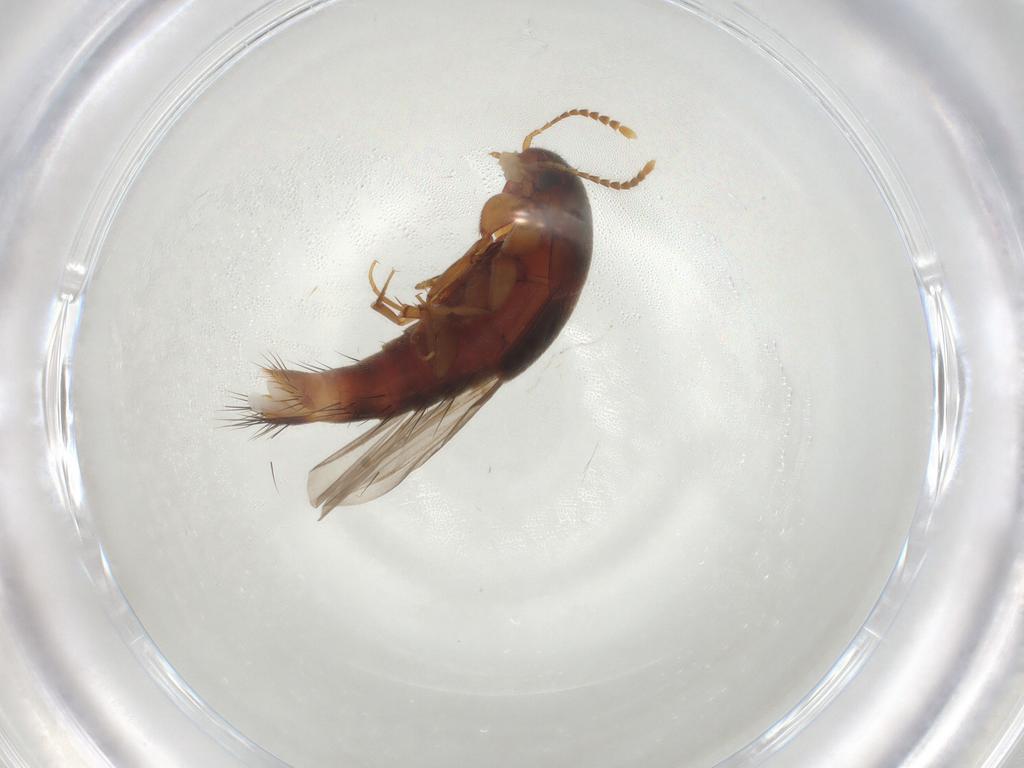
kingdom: Animalia
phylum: Arthropoda
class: Insecta
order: Coleoptera
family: Staphylinidae
